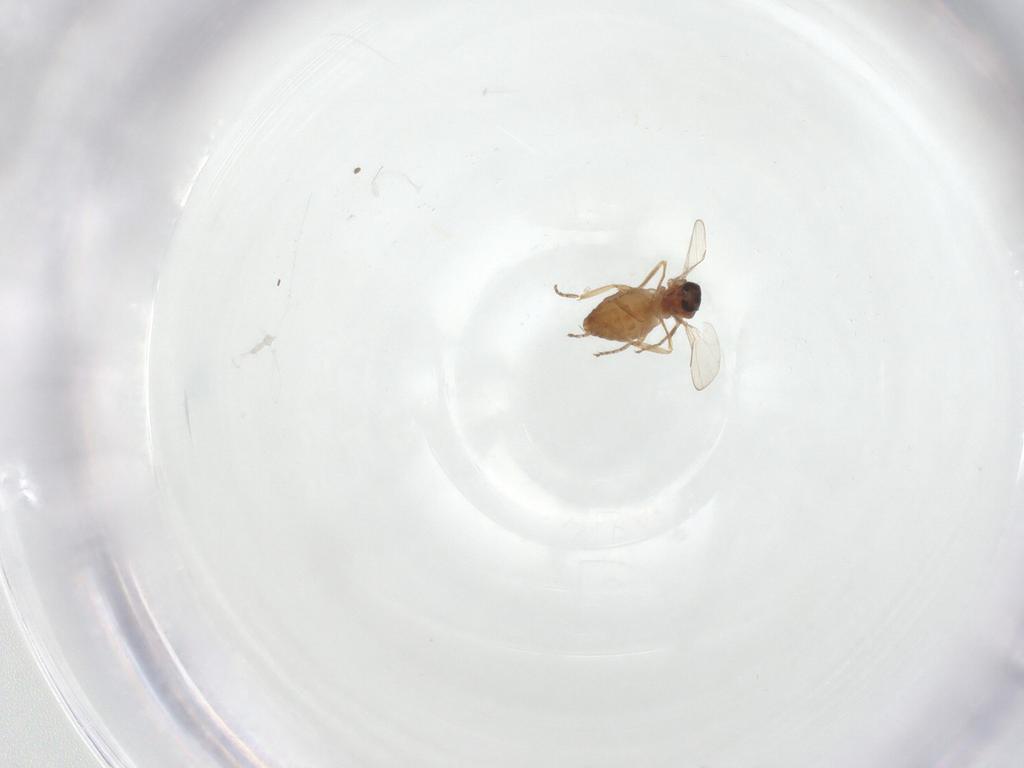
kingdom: Animalia
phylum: Arthropoda
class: Insecta
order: Diptera
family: Ceratopogonidae
